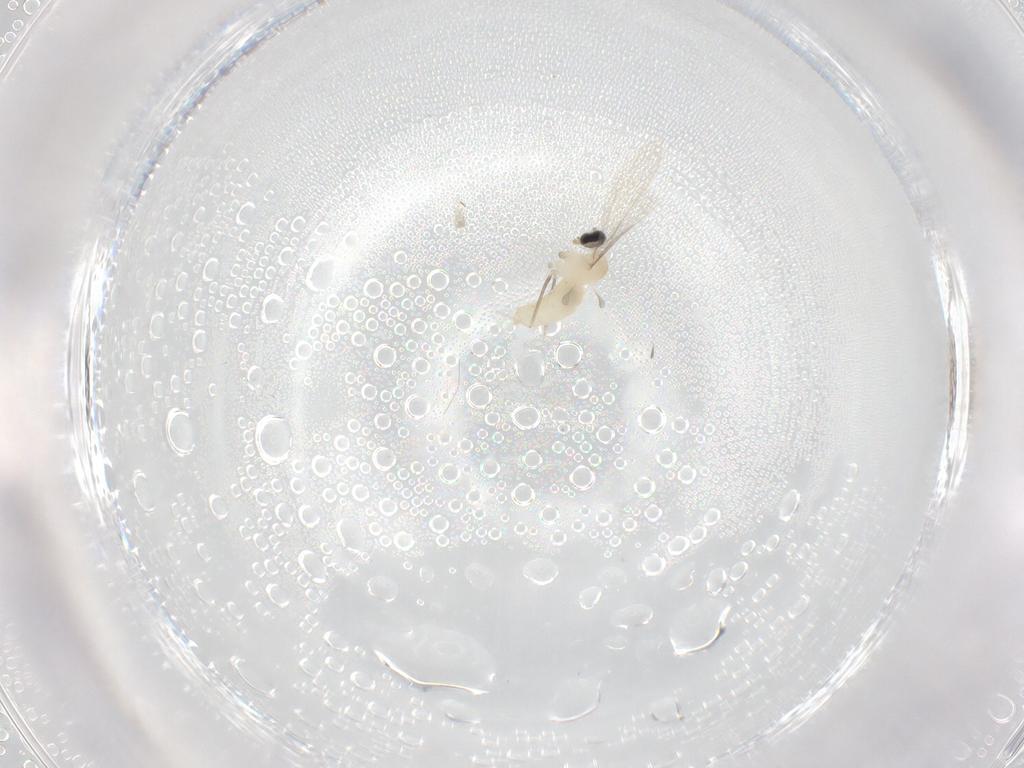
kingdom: Animalia
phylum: Arthropoda
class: Insecta
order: Diptera
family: Cecidomyiidae
